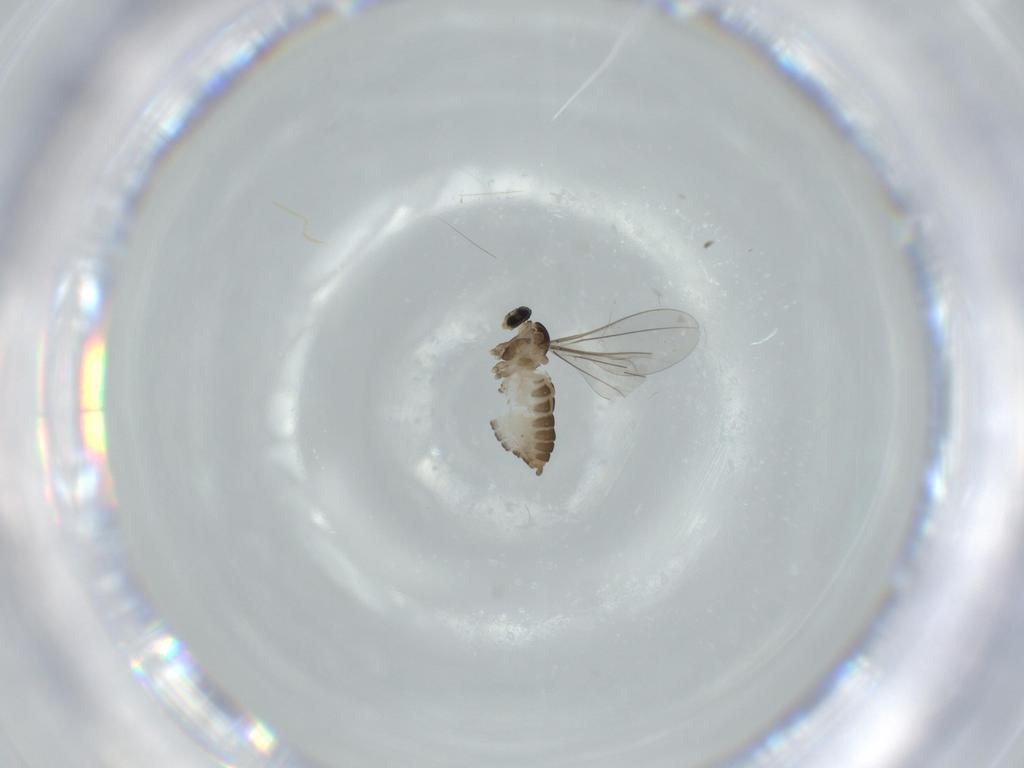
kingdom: Animalia
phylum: Arthropoda
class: Insecta
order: Diptera
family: Cecidomyiidae
